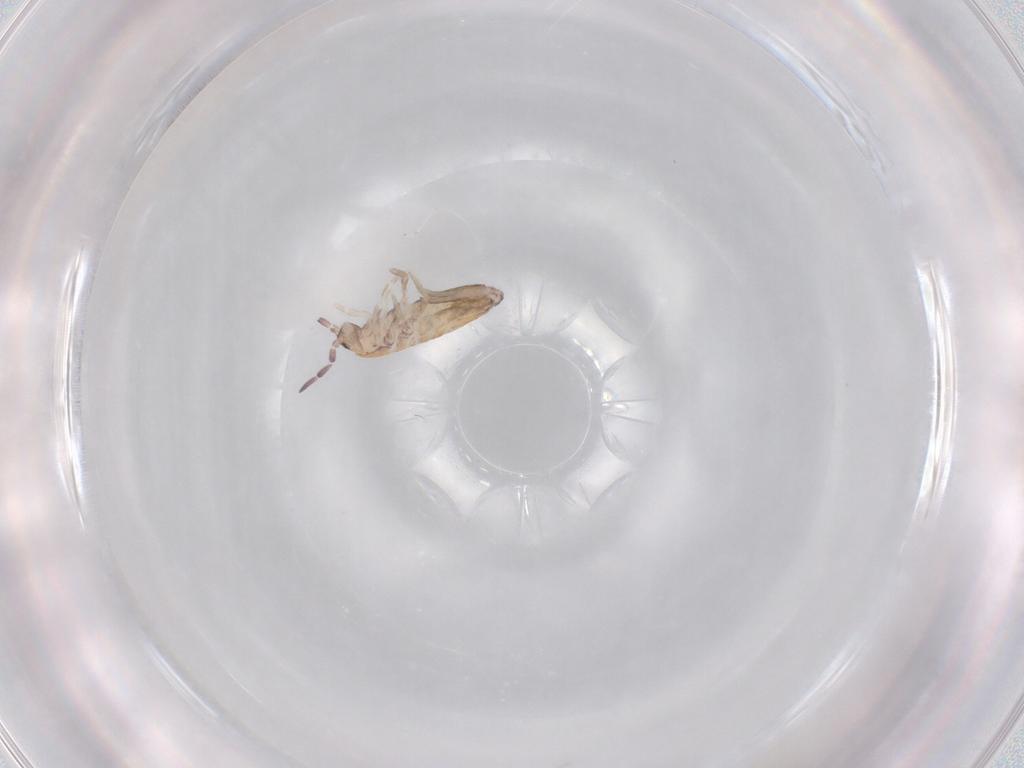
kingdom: Animalia
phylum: Arthropoda
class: Collembola
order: Entomobryomorpha
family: Entomobryidae
